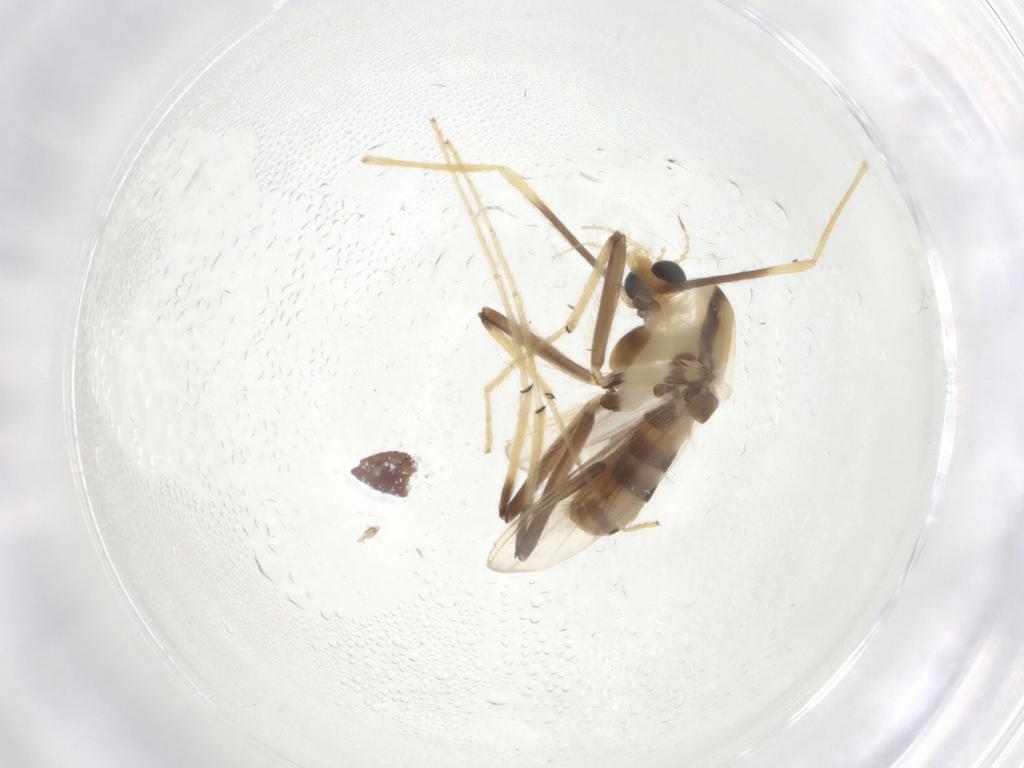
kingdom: Animalia
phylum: Arthropoda
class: Insecta
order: Diptera
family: Chironomidae
